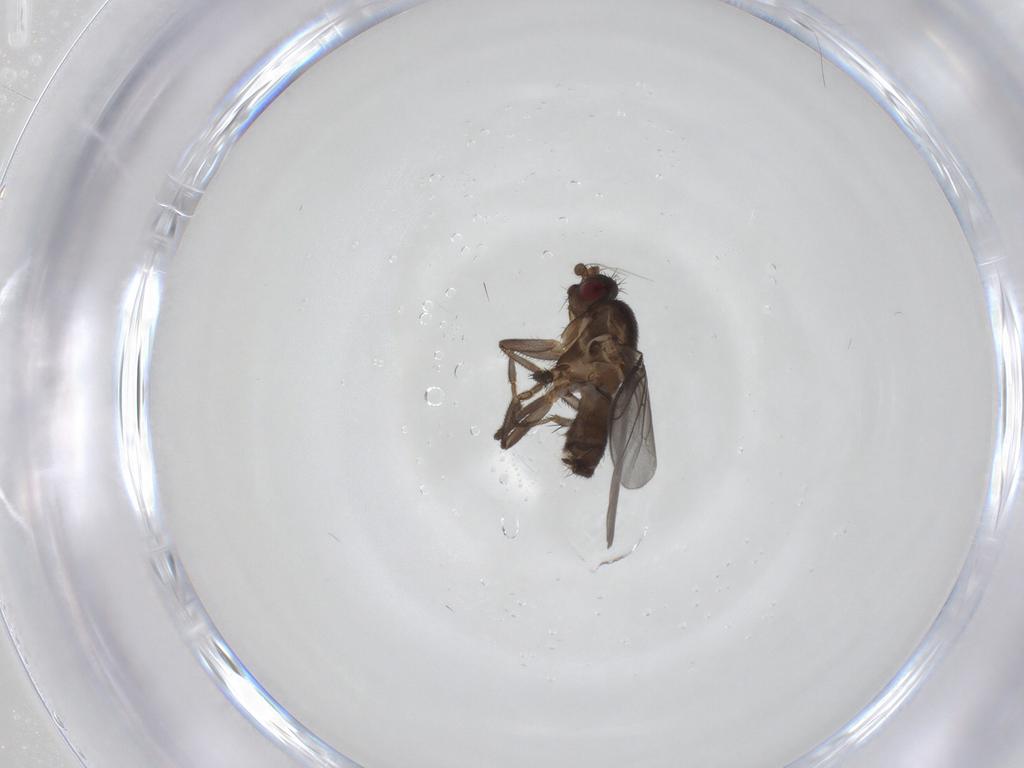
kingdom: Animalia
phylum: Arthropoda
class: Insecta
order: Diptera
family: Sphaeroceridae
